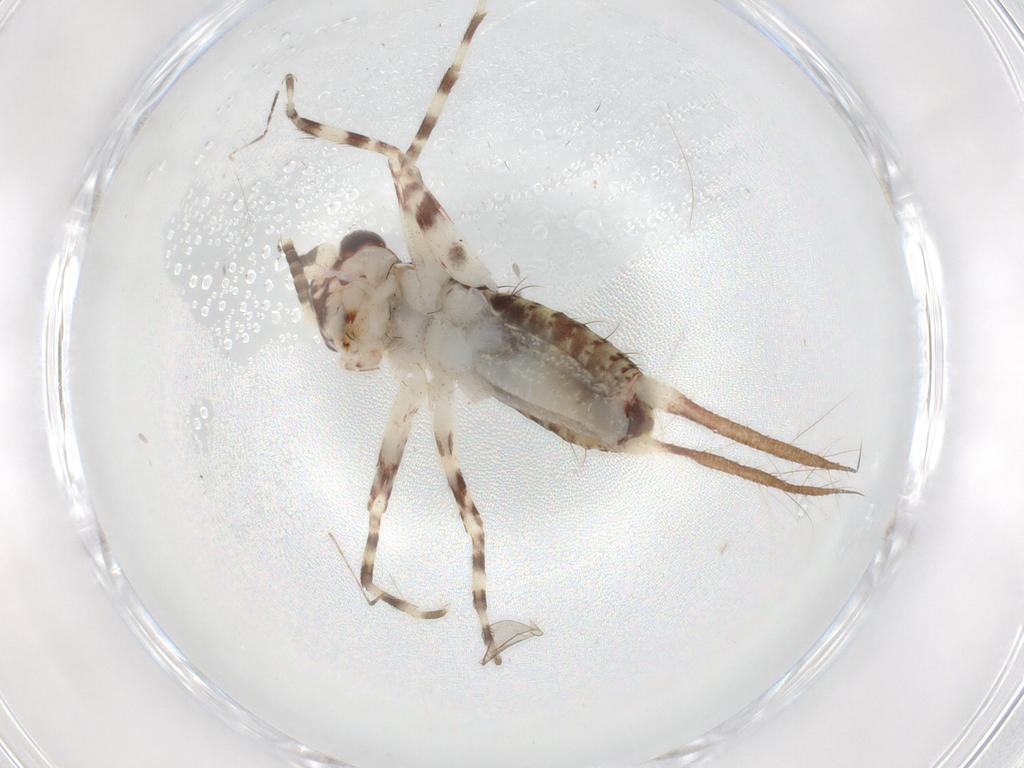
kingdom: Animalia
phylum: Arthropoda
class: Insecta
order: Orthoptera
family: Gryllidae
